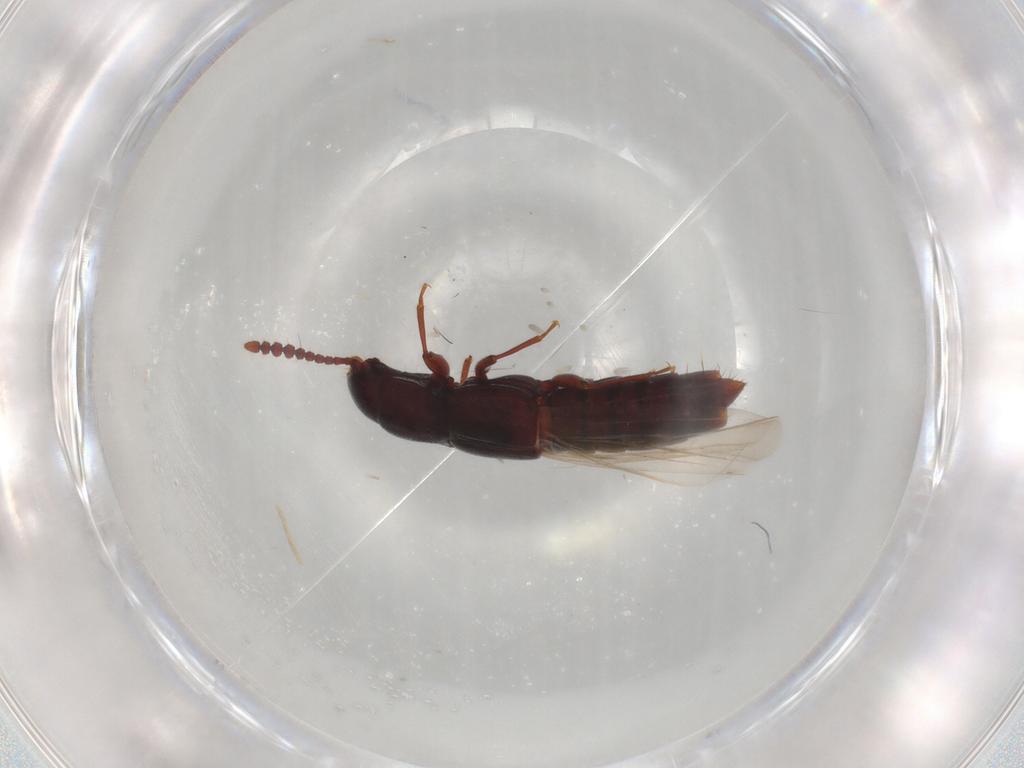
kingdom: Animalia
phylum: Arthropoda
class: Insecta
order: Coleoptera
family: Staphylinidae
